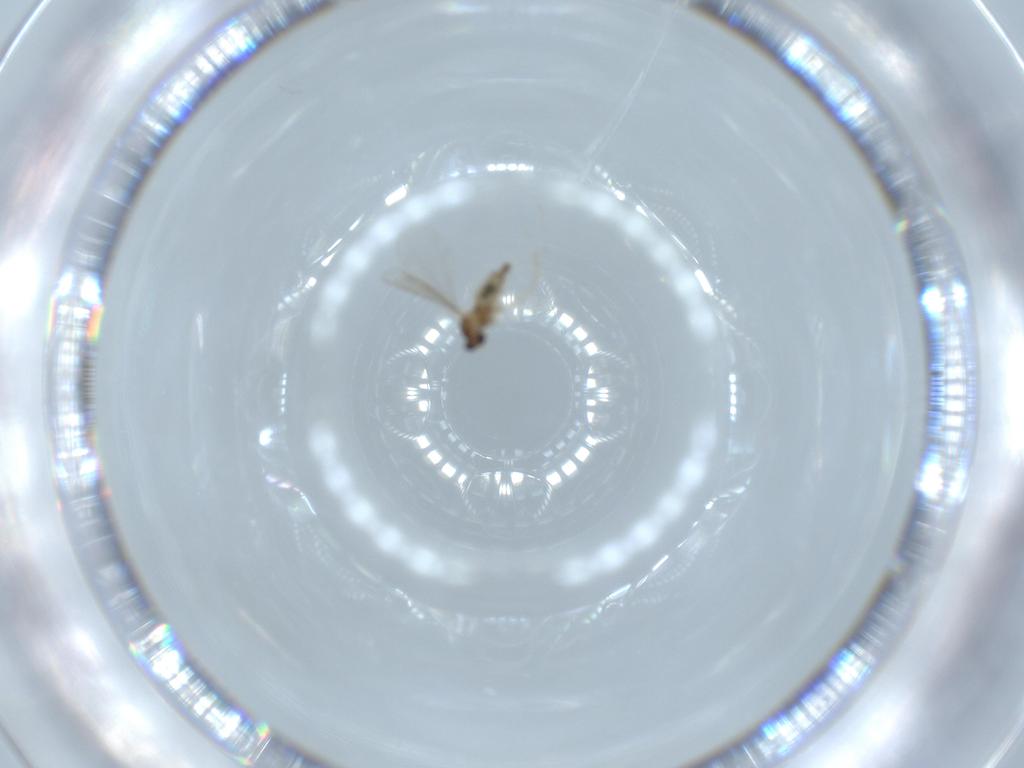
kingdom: Animalia
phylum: Arthropoda
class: Insecta
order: Diptera
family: Cecidomyiidae
